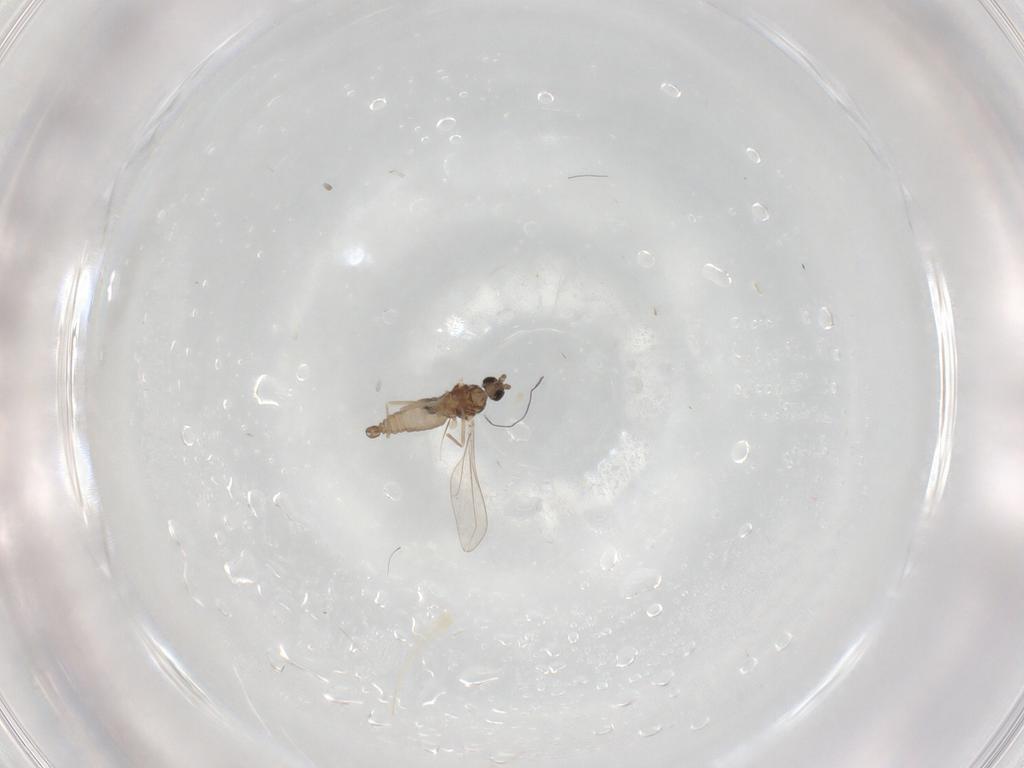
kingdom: Animalia
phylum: Arthropoda
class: Insecta
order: Diptera
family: Cecidomyiidae
